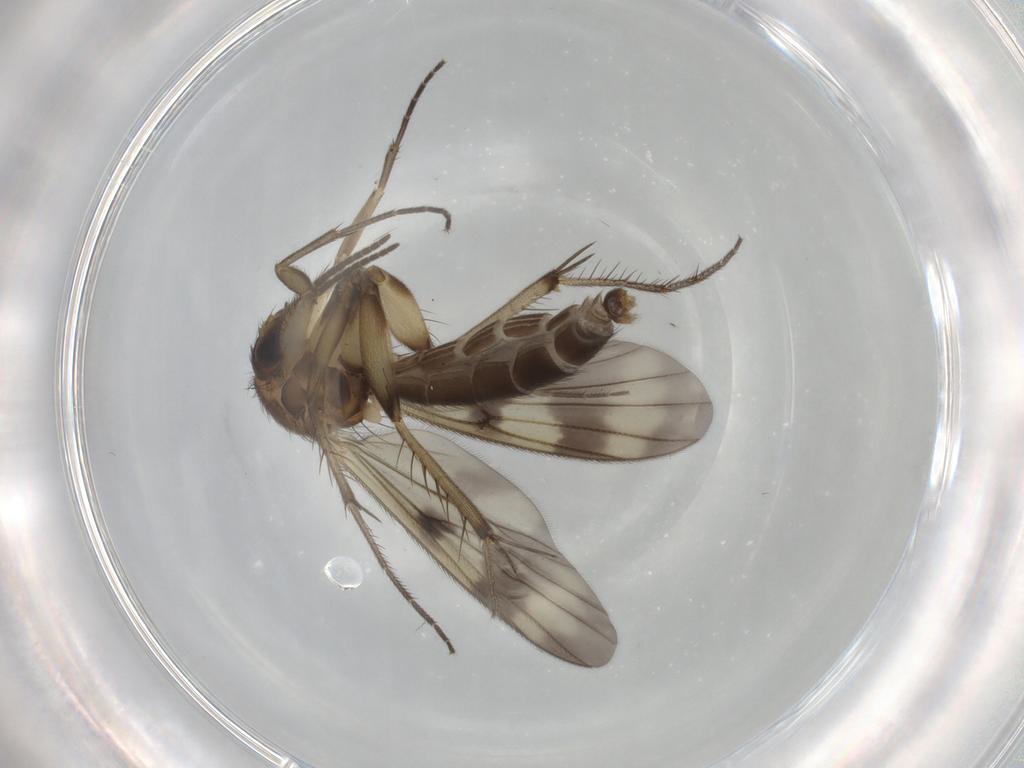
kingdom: Animalia
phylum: Arthropoda
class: Insecta
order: Diptera
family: Mycetophilidae
